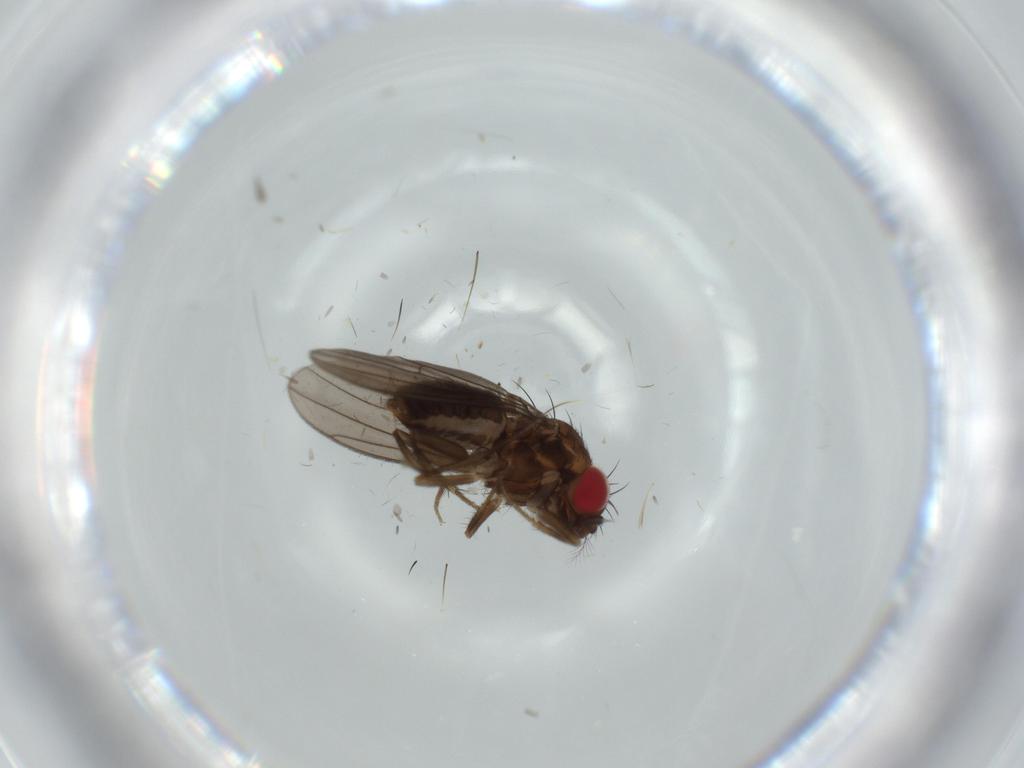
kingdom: Animalia
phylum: Arthropoda
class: Insecta
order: Diptera
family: Drosophilidae
